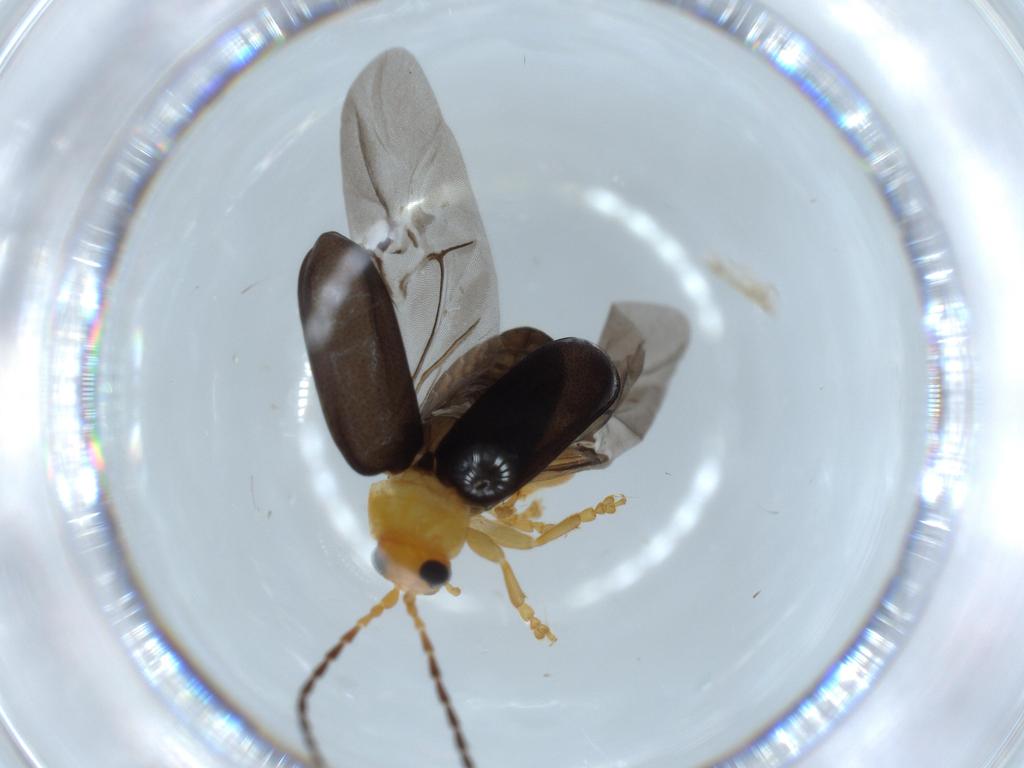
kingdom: Animalia
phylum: Arthropoda
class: Insecta
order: Coleoptera
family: Chrysomelidae
